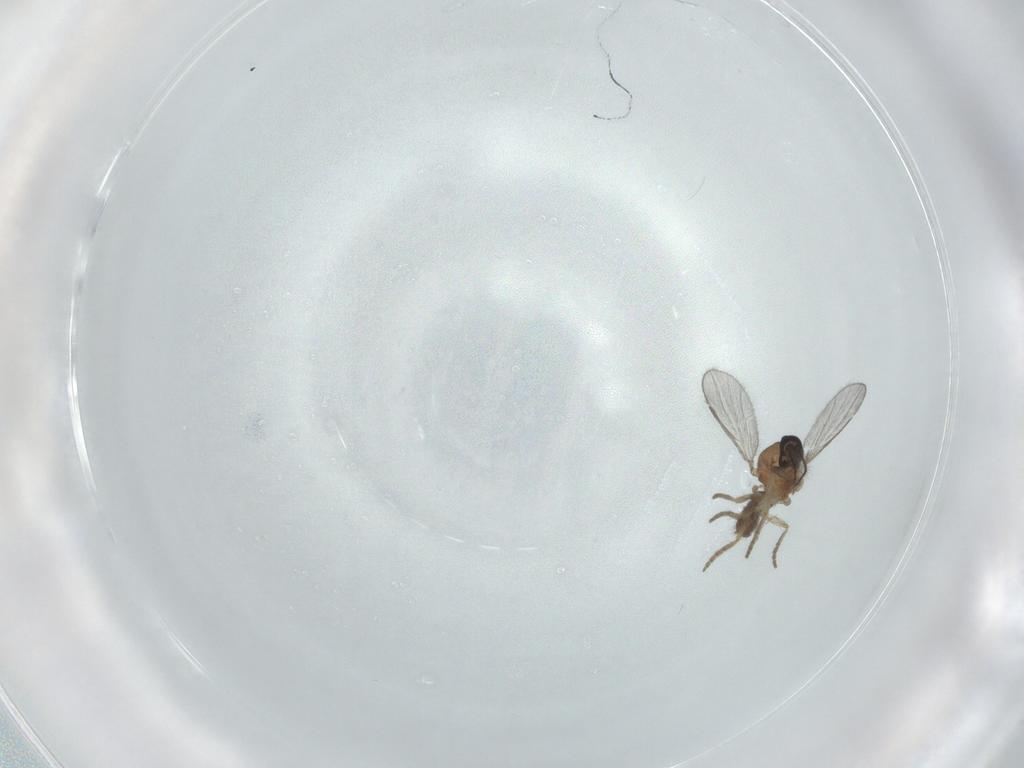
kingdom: Animalia
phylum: Arthropoda
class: Insecta
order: Diptera
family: Ceratopogonidae
